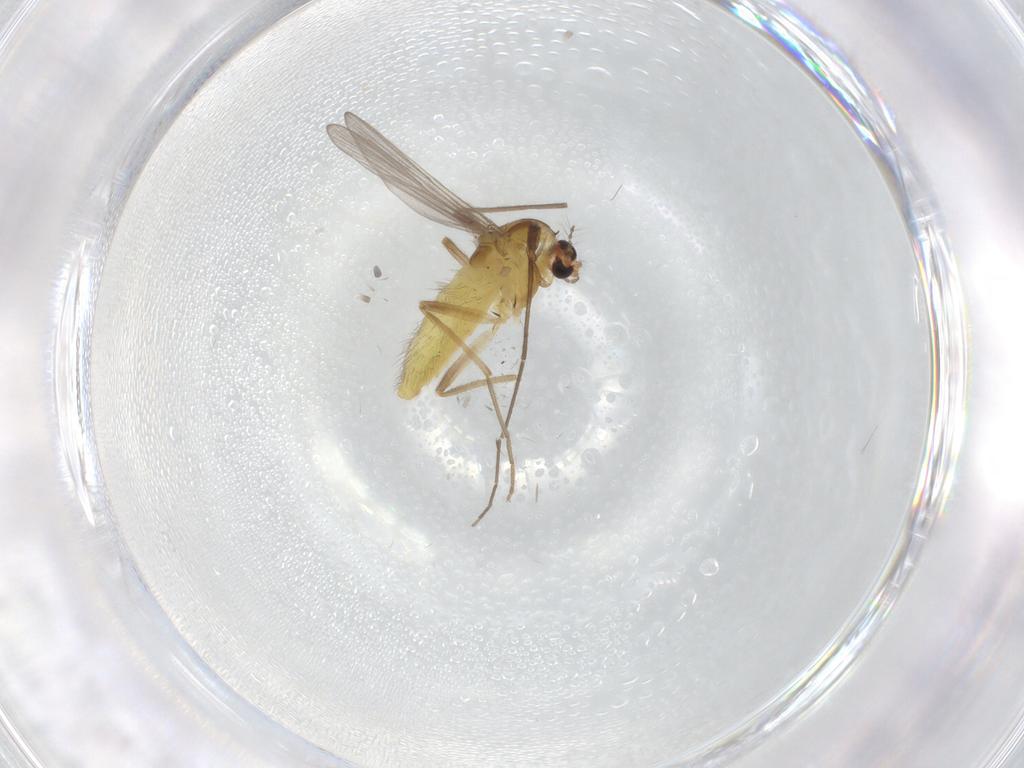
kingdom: Animalia
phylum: Arthropoda
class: Insecta
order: Diptera
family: Chironomidae
